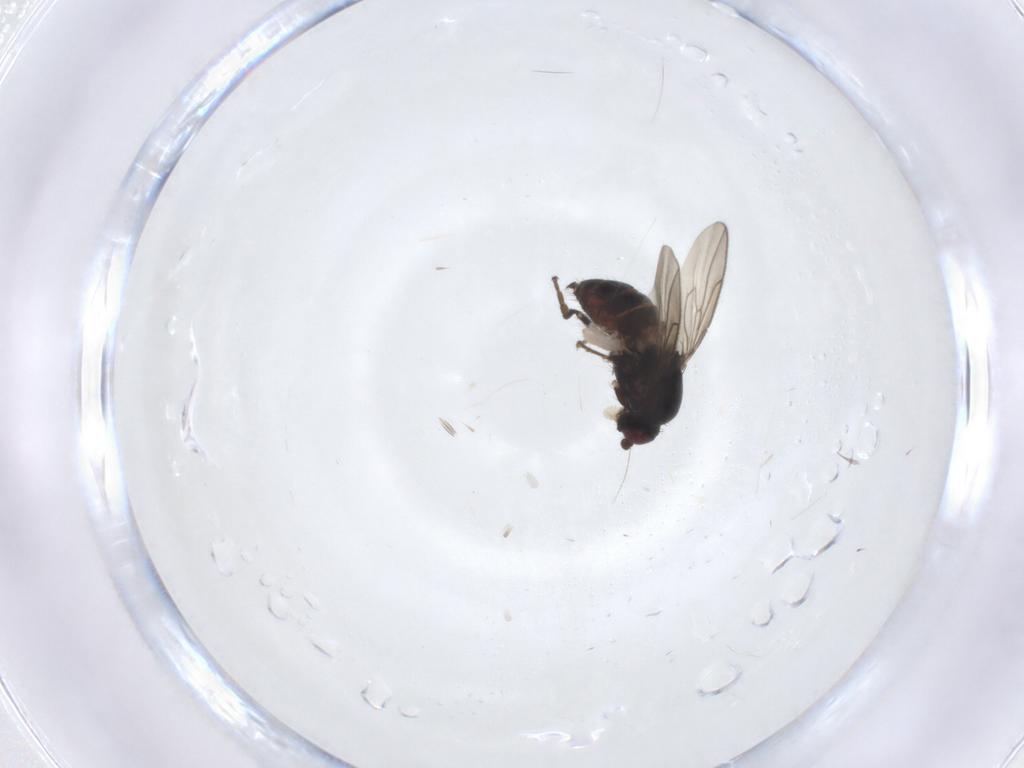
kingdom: Animalia
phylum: Arthropoda
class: Insecta
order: Diptera
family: Sphaeroceridae
